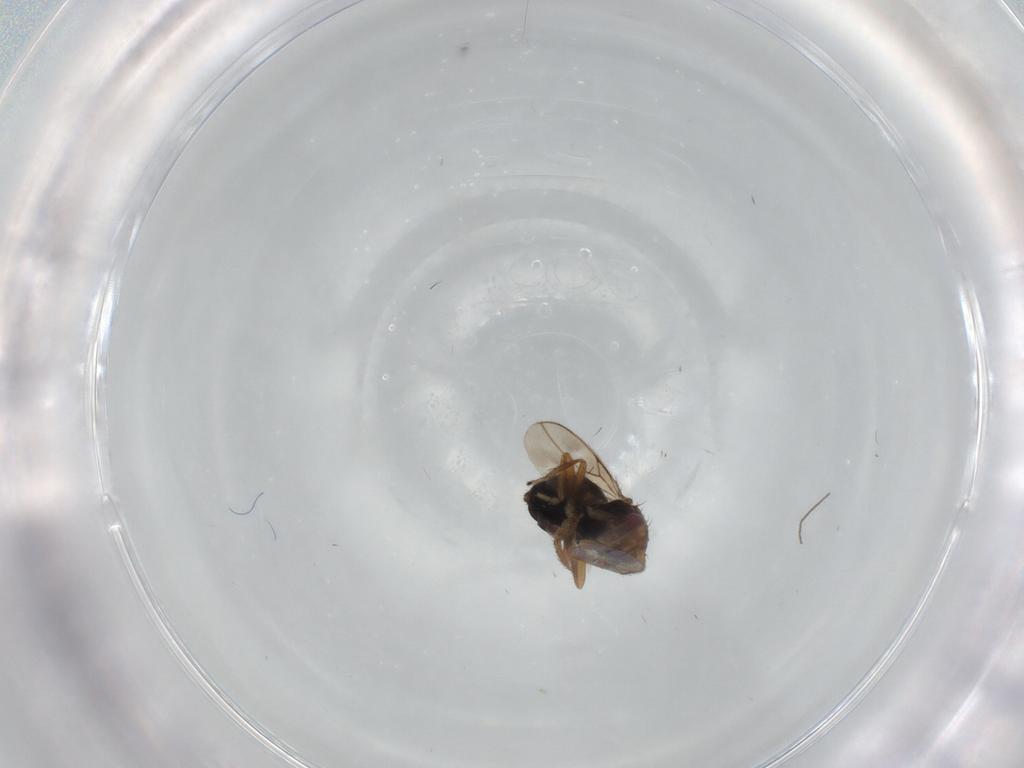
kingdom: Animalia
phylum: Arthropoda
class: Insecta
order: Diptera
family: Sphaeroceridae
